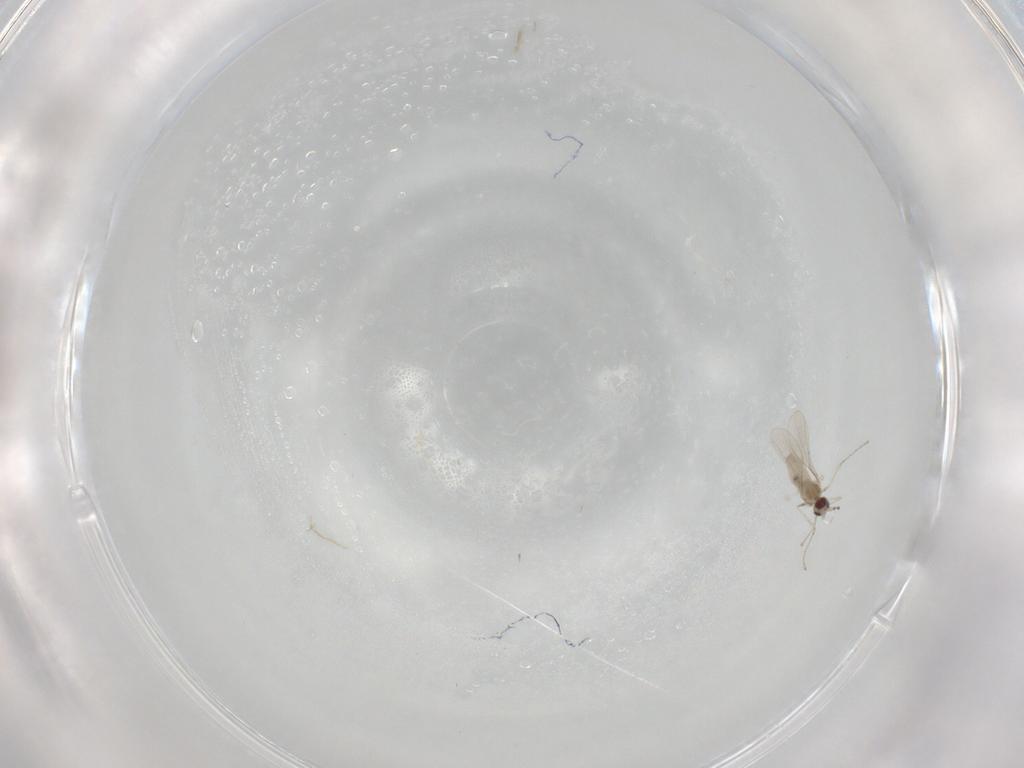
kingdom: Animalia
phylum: Arthropoda
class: Insecta
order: Diptera
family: Cecidomyiidae
